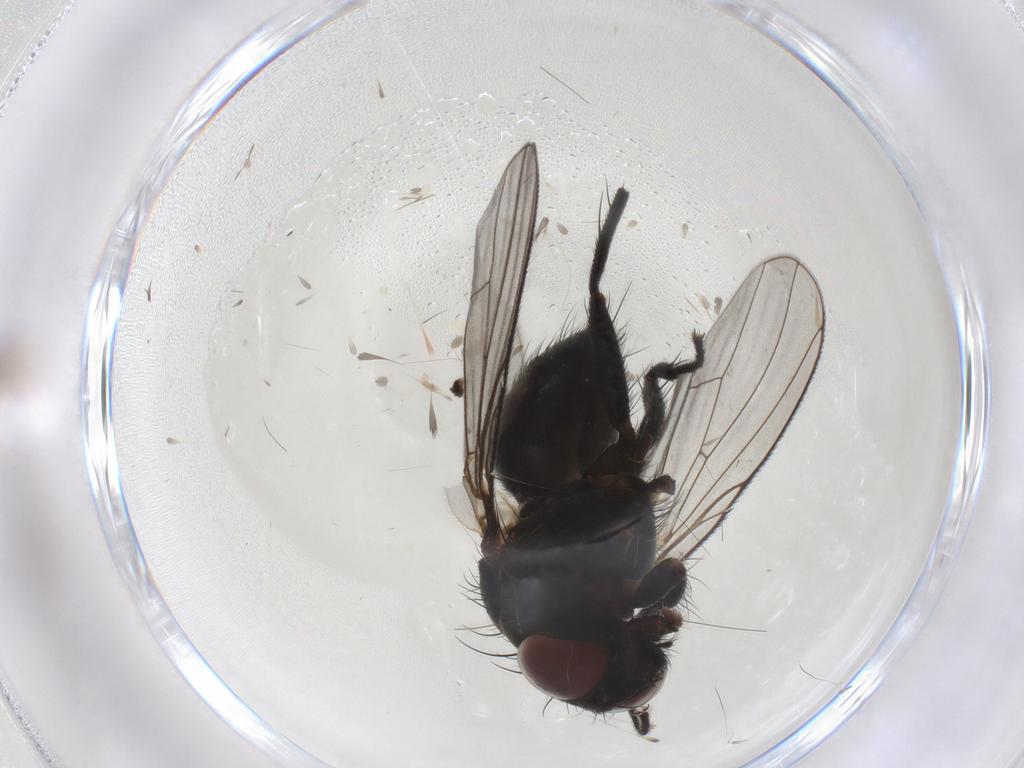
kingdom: Animalia
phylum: Arthropoda
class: Insecta
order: Diptera
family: Muscidae
